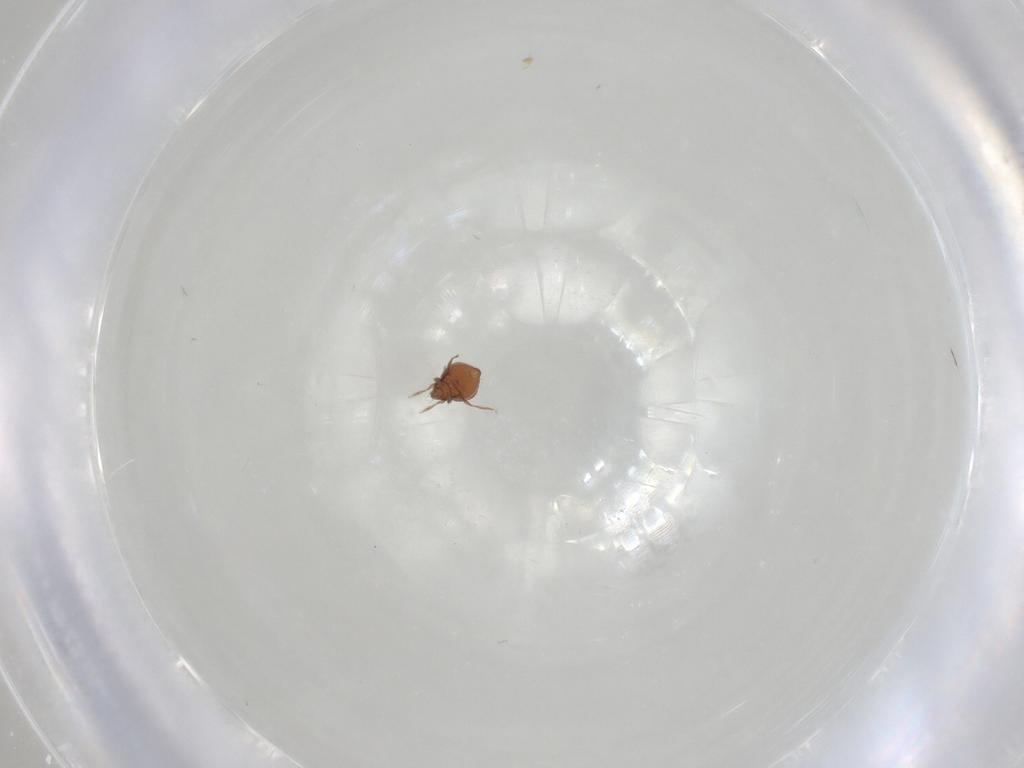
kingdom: Animalia
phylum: Arthropoda
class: Arachnida
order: Sarcoptiformes
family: Oribatulidae
